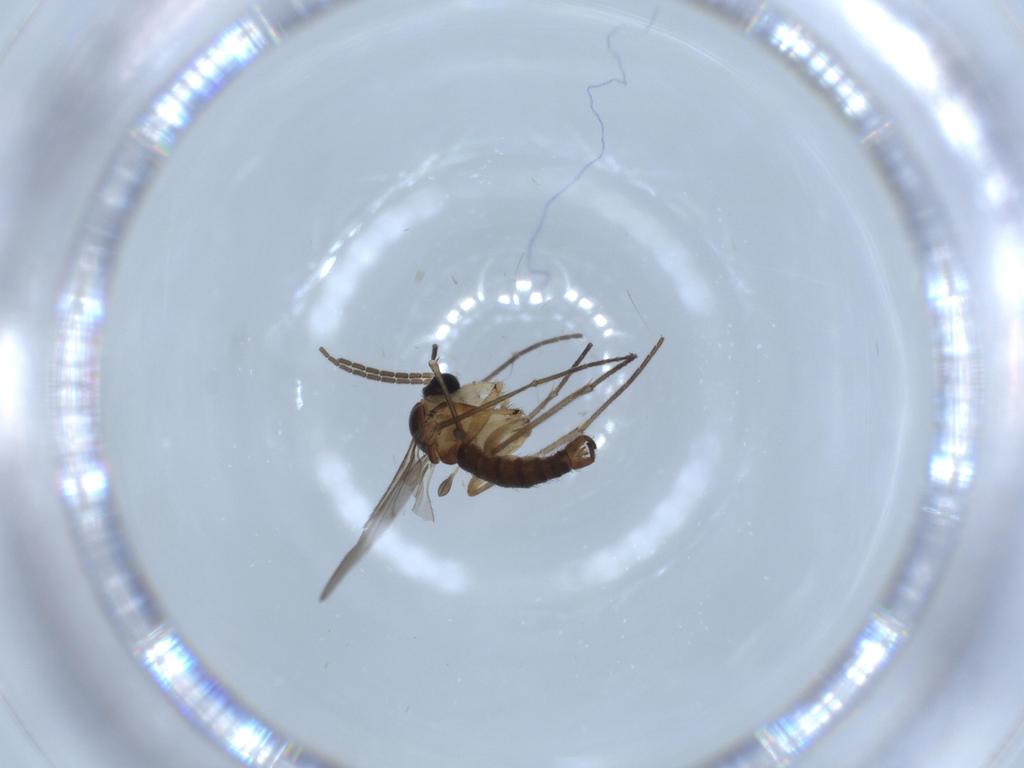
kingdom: Animalia
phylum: Arthropoda
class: Insecta
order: Diptera
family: Sciaridae
